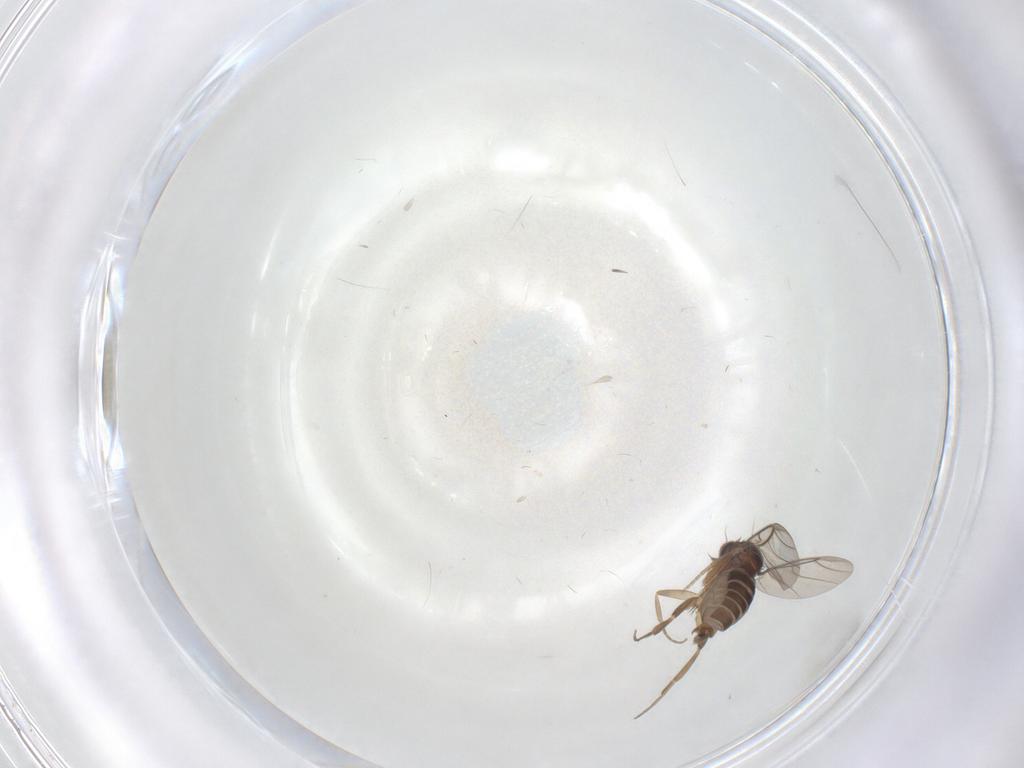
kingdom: Animalia
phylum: Arthropoda
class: Insecta
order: Diptera
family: Phoridae
